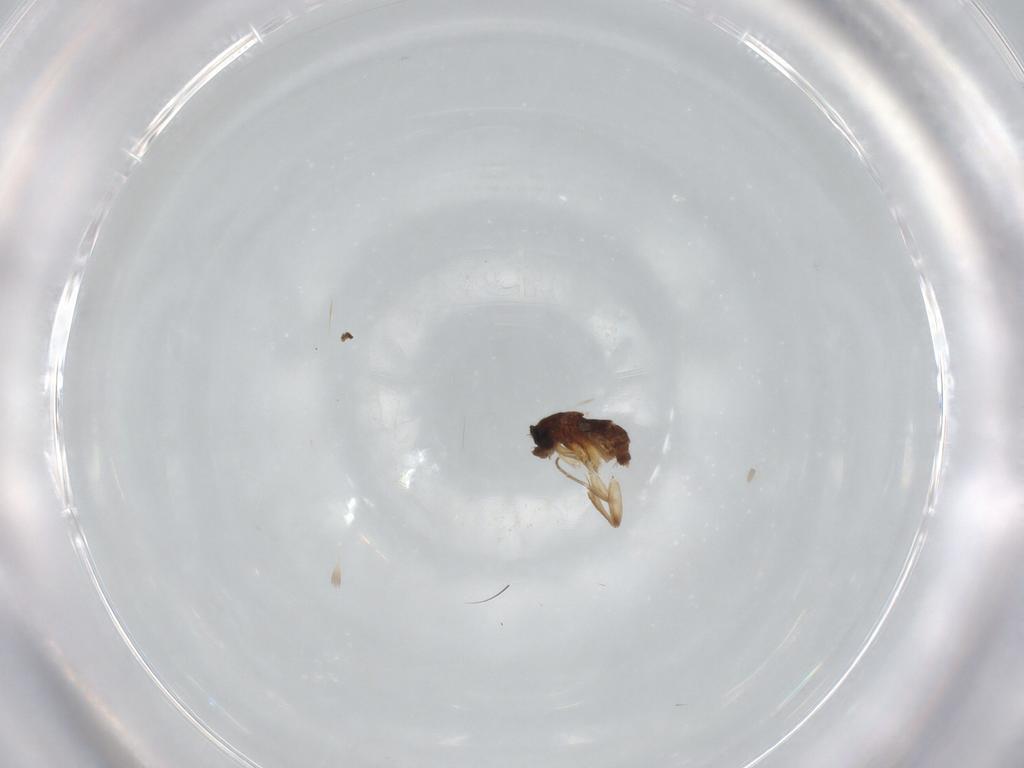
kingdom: Animalia
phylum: Arthropoda
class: Insecta
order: Diptera
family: Phoridae
